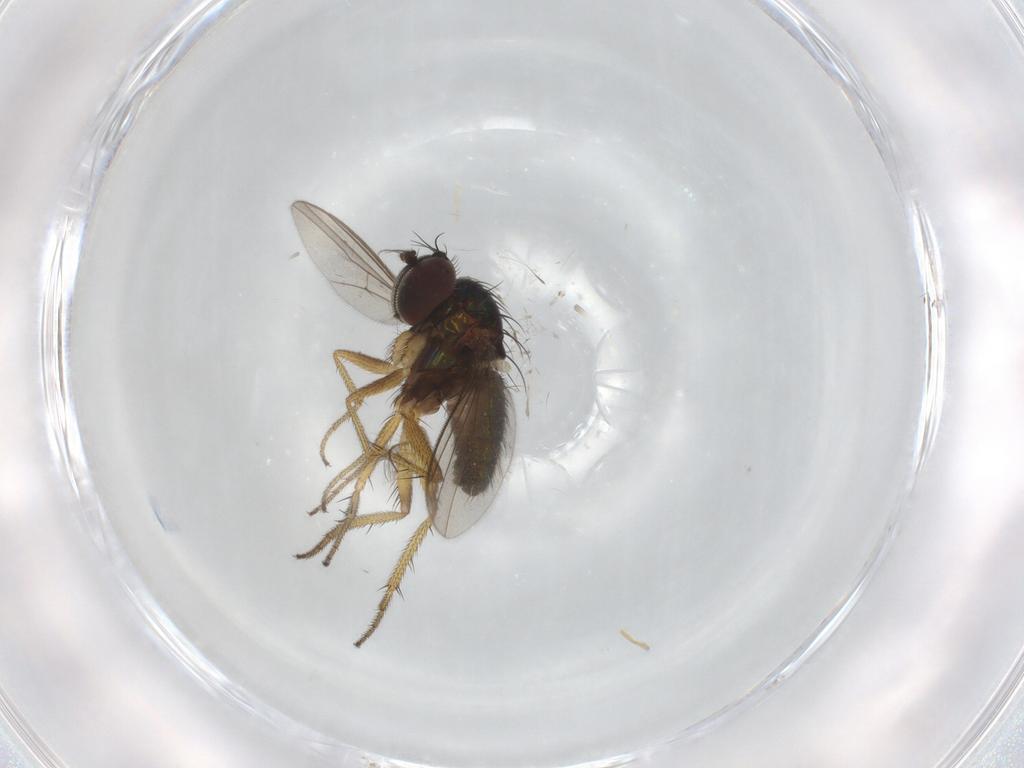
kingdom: Animalia
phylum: Arthropoda
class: Insecta
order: Diptera
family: Dolichopodidae
